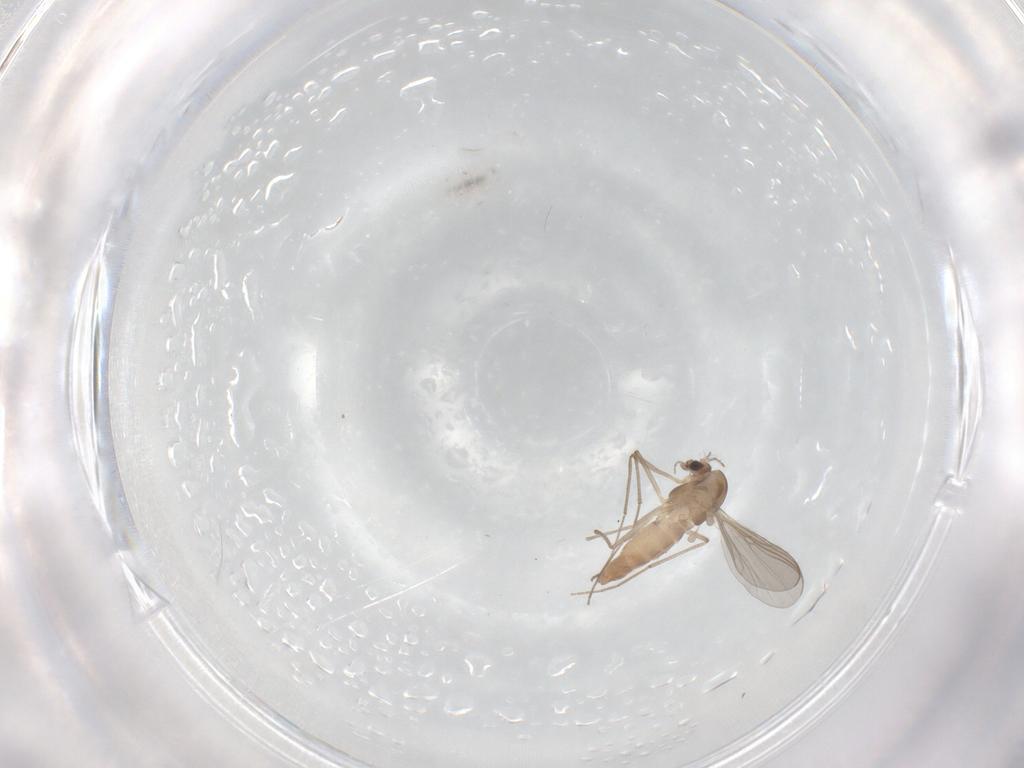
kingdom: Animalia
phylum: Arthropoda
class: Insecta
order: Diptera
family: Chironomidae
